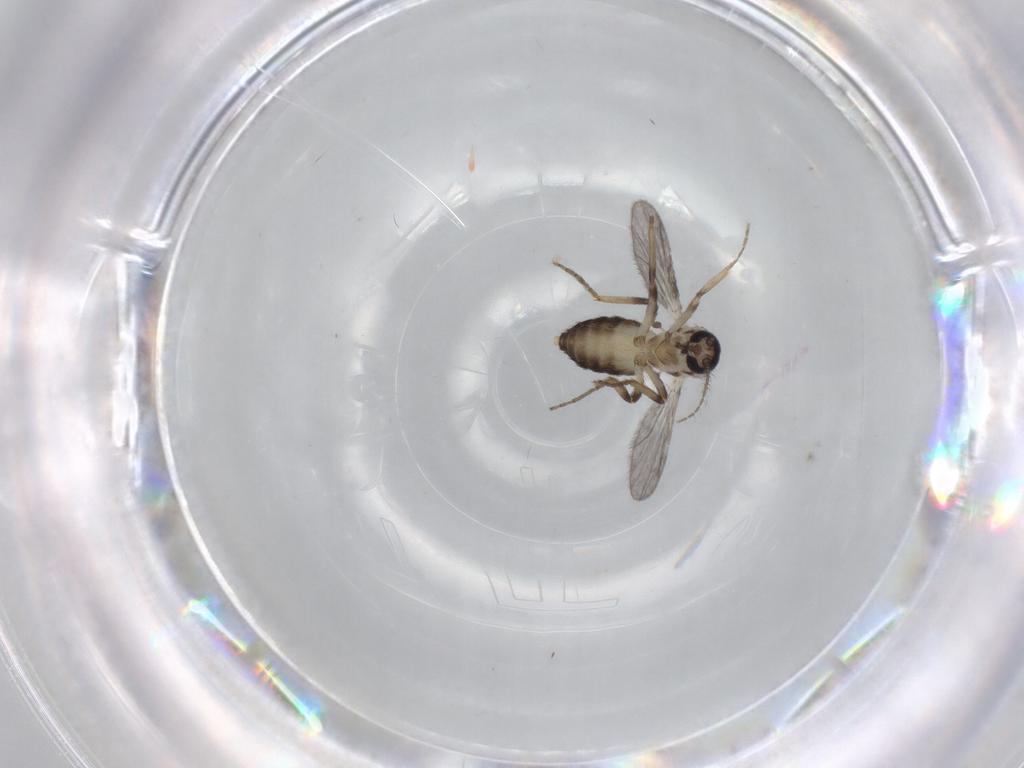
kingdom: Animalia
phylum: Arthropoda
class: Insecta
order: Diptera
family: Ceratopogonidae
